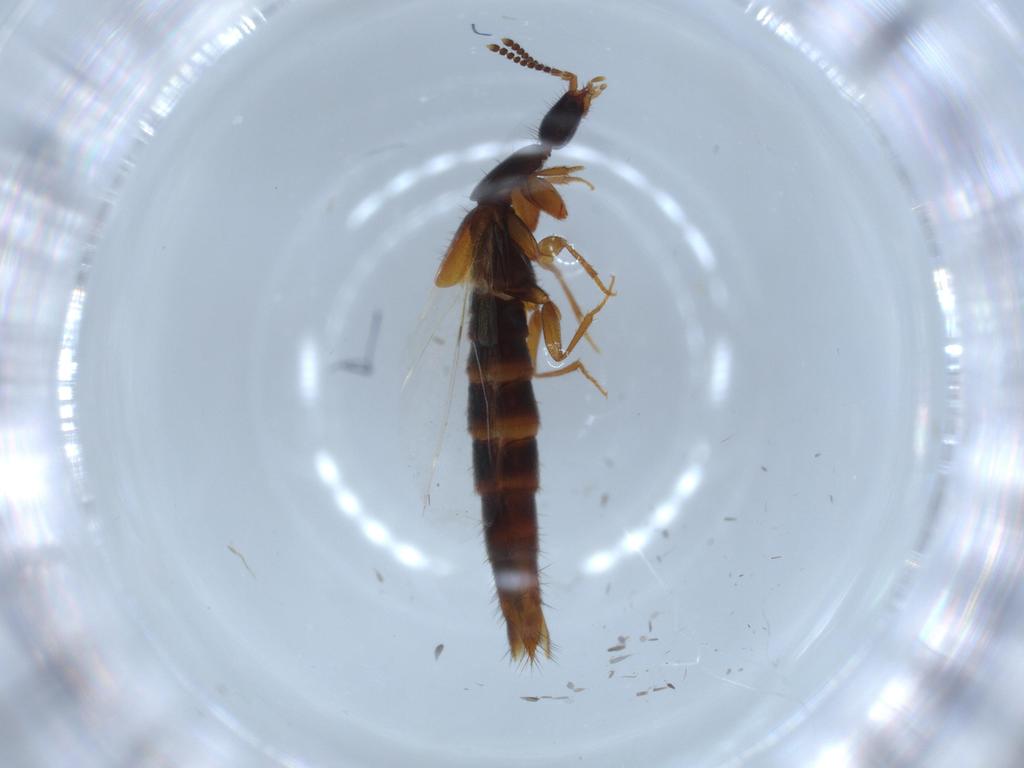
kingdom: Animalia
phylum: Arthropoda
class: Insecta
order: Coleoptera
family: Staphylinidae
